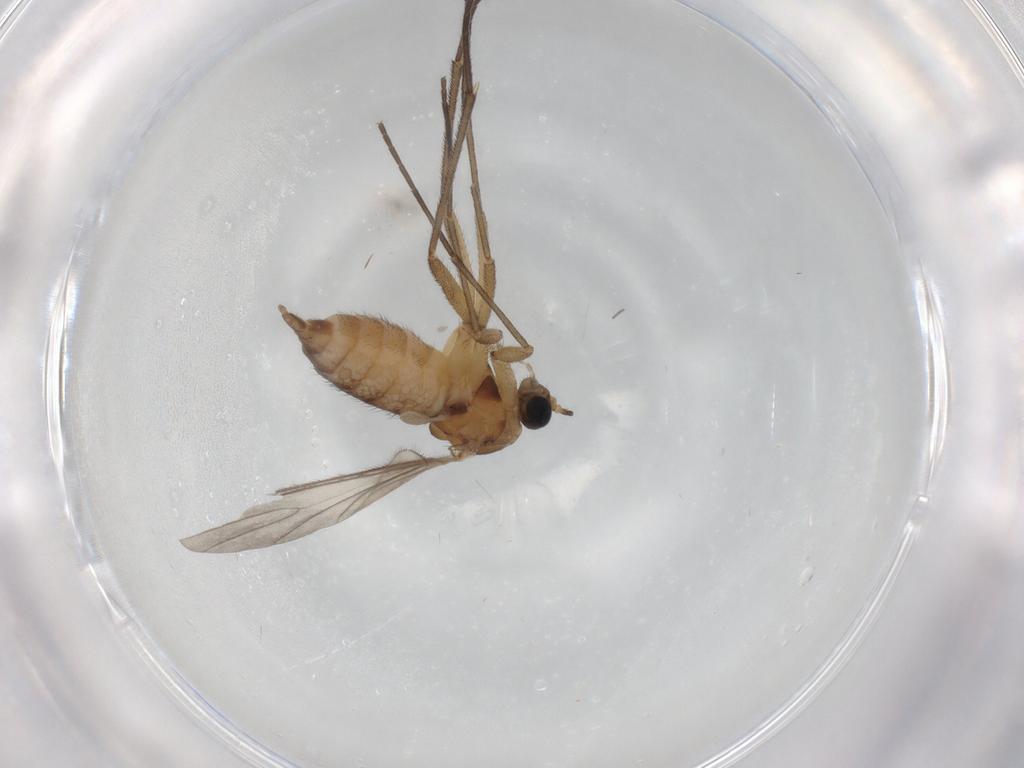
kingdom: Animalia
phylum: Arthropoda
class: Insecta
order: Diptera
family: Sciaridae
